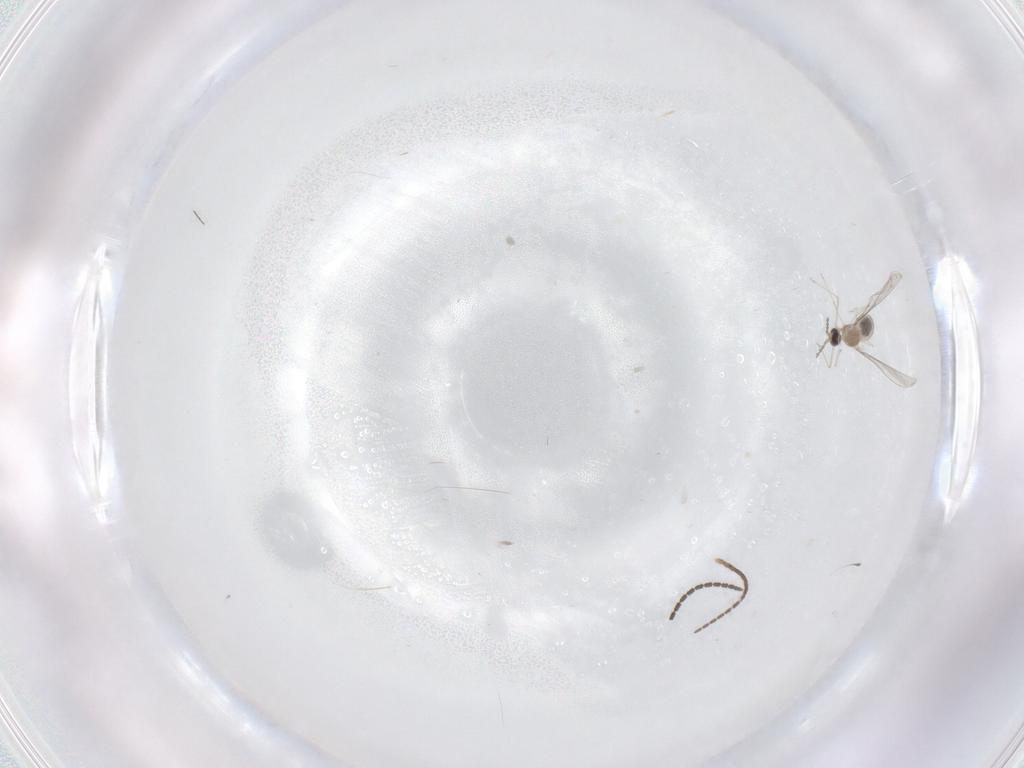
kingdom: Animalia
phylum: Arthropoda
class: Insecta
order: Diptera
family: Cecidomyiidae
